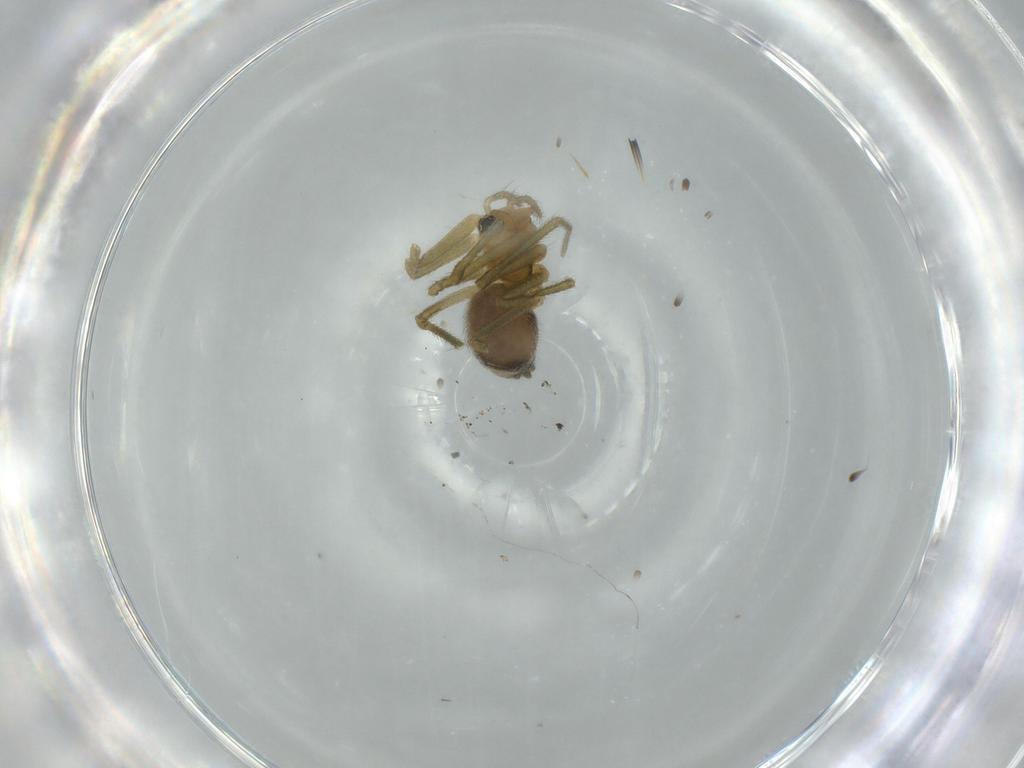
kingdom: Animalia
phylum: Arthropoda
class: Arachnida
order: Araneae
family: Linyphiidae
